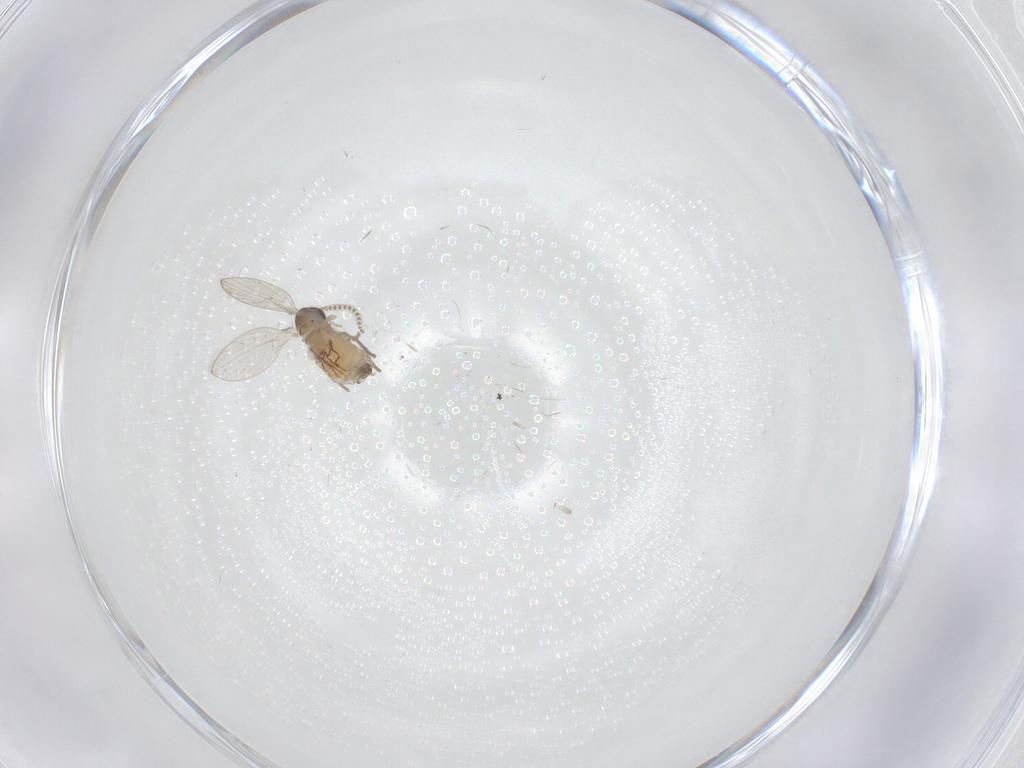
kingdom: Animalia
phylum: Arthropoda
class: Insecta
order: Diptera
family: Psychodidae
